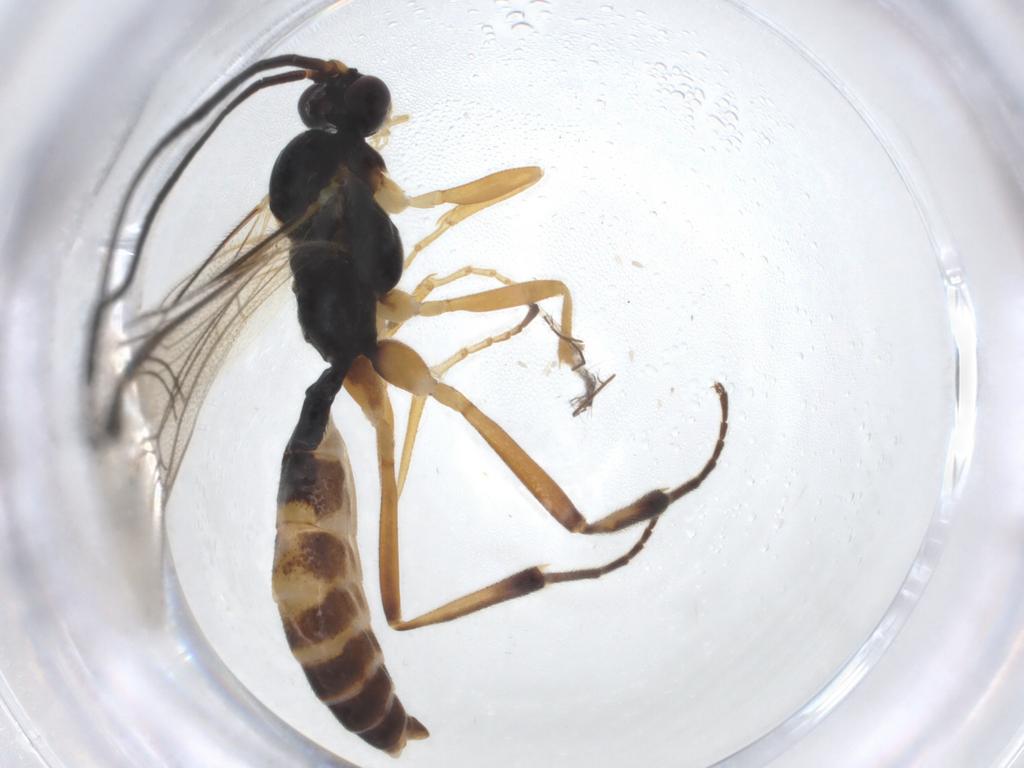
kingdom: Animalia
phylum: Arthropoda
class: Insecta
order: Hymenoptera
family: Ichneumonidae
